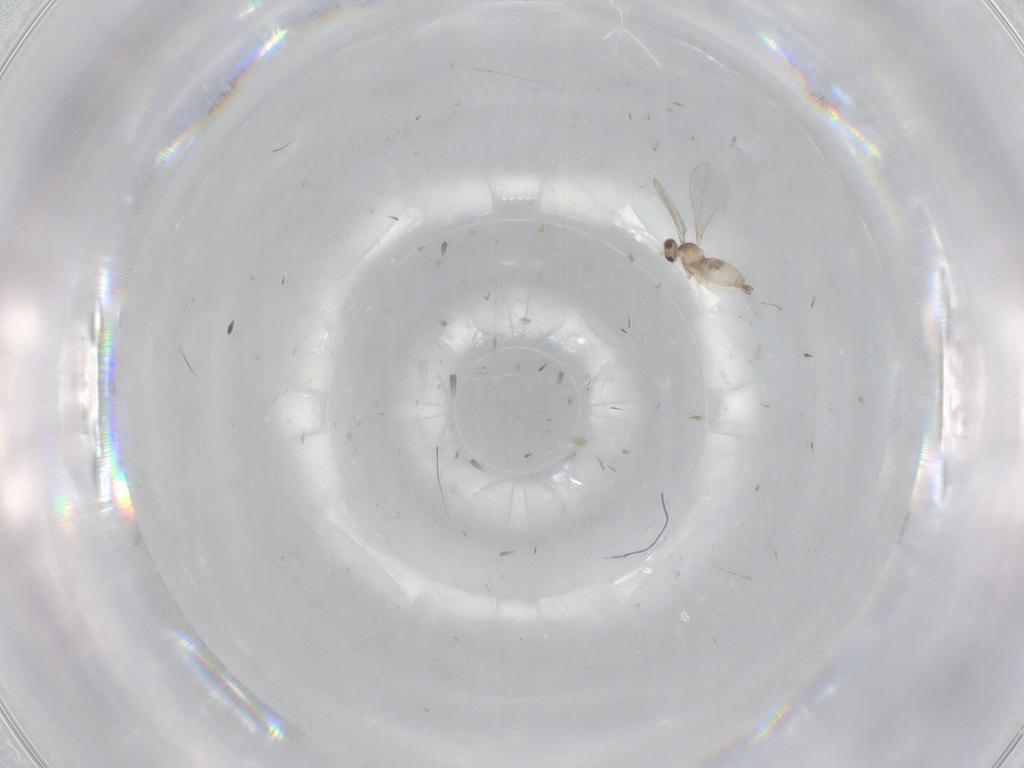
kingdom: Animalia
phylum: Arthropoda
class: Insecta
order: Diptera
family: Cecidomyiidae
